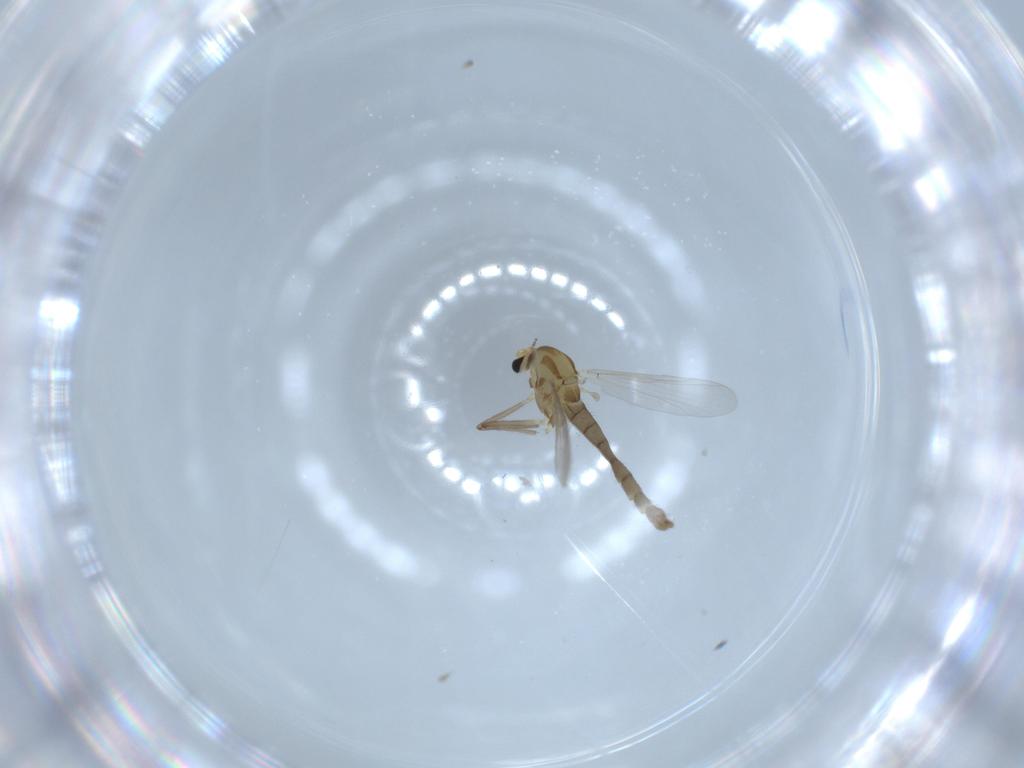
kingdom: Animalia
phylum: Arthropoda
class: Insecta
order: Diptera
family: Chironomidae
